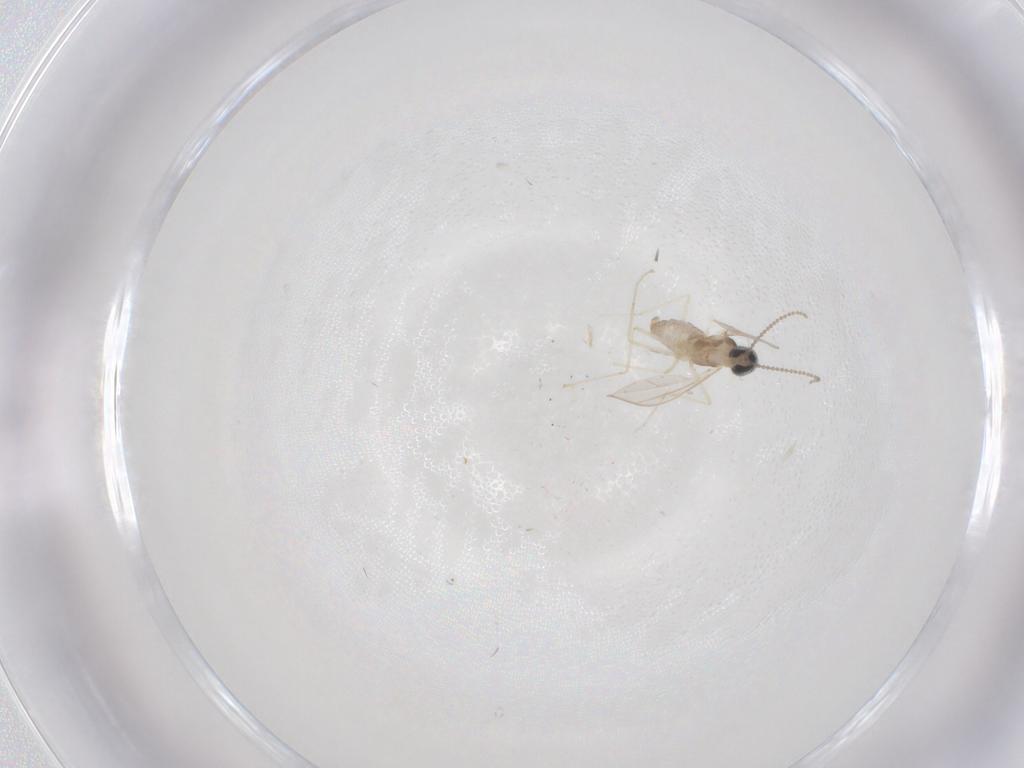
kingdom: Animalia
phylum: Arthropoda
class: Insecta
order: Diptera
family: Cecidomyiidae
